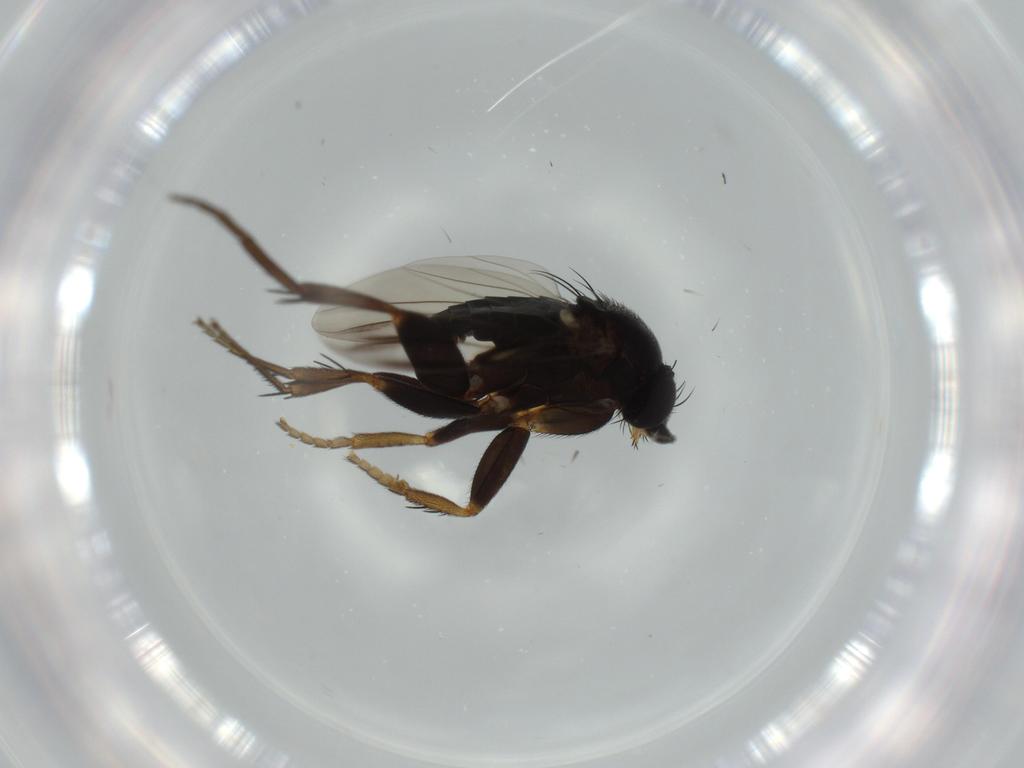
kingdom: Animalia
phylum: Arthropoda
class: Insecta
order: Diptera
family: Phoridae
